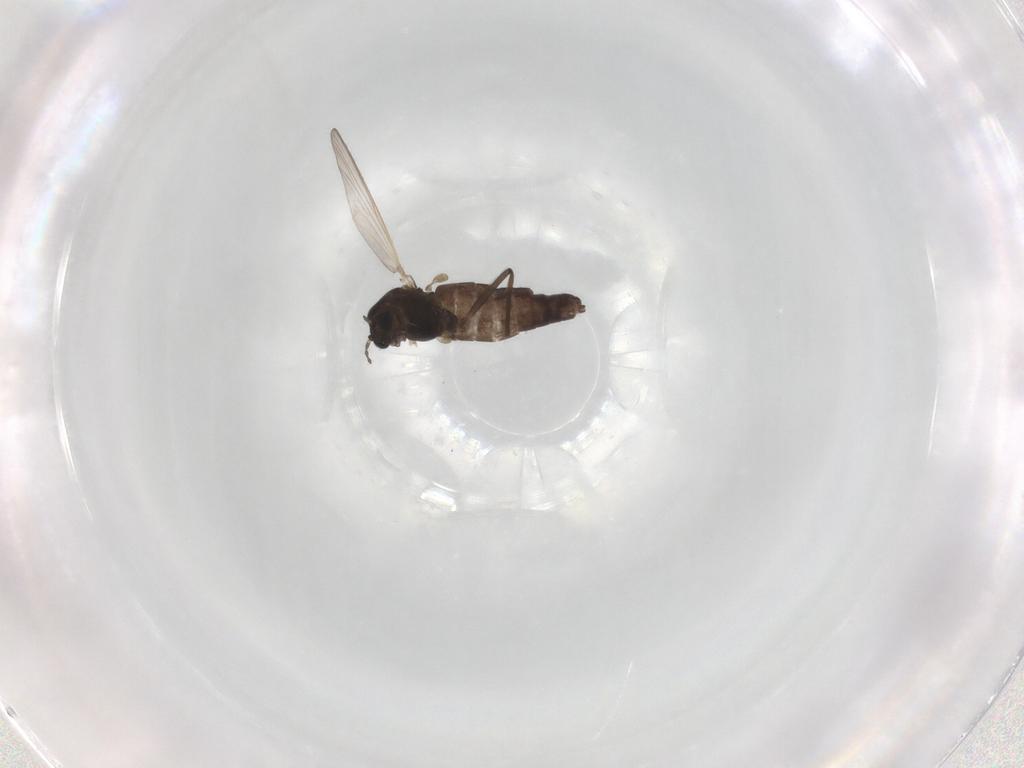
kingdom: Animalia
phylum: Arthropoda
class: Insecta
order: Diptera
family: Chironomidae
